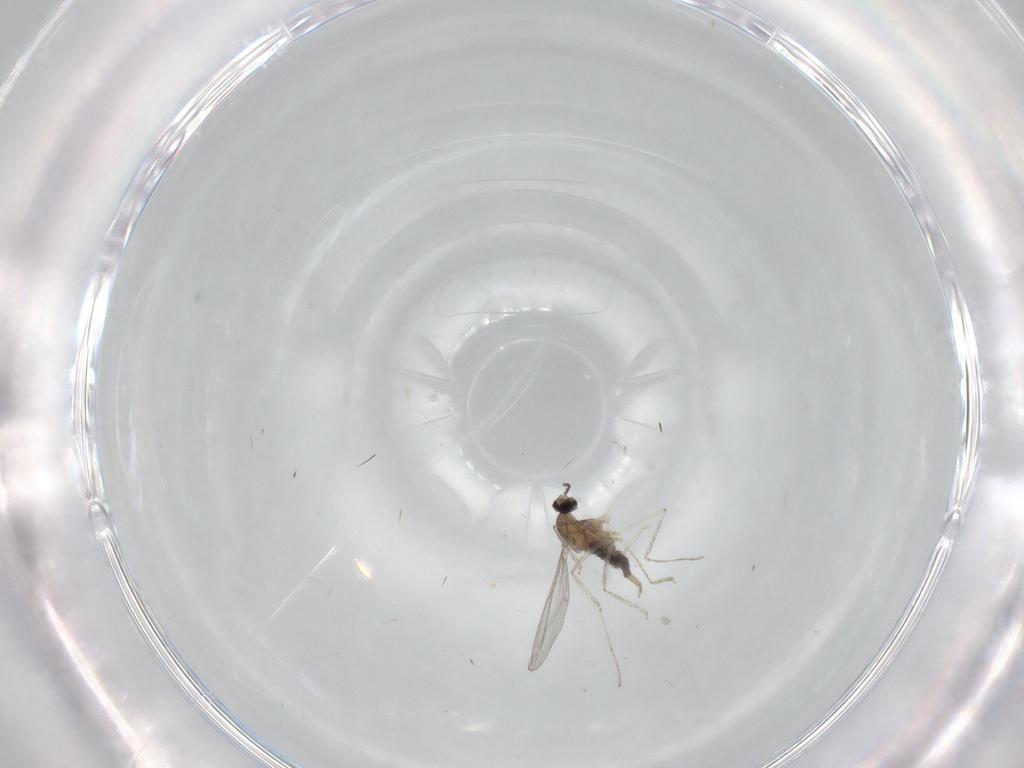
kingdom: Animalia
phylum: Arthropoda
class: Insecta
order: Diptera
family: Cecidomyiidae
